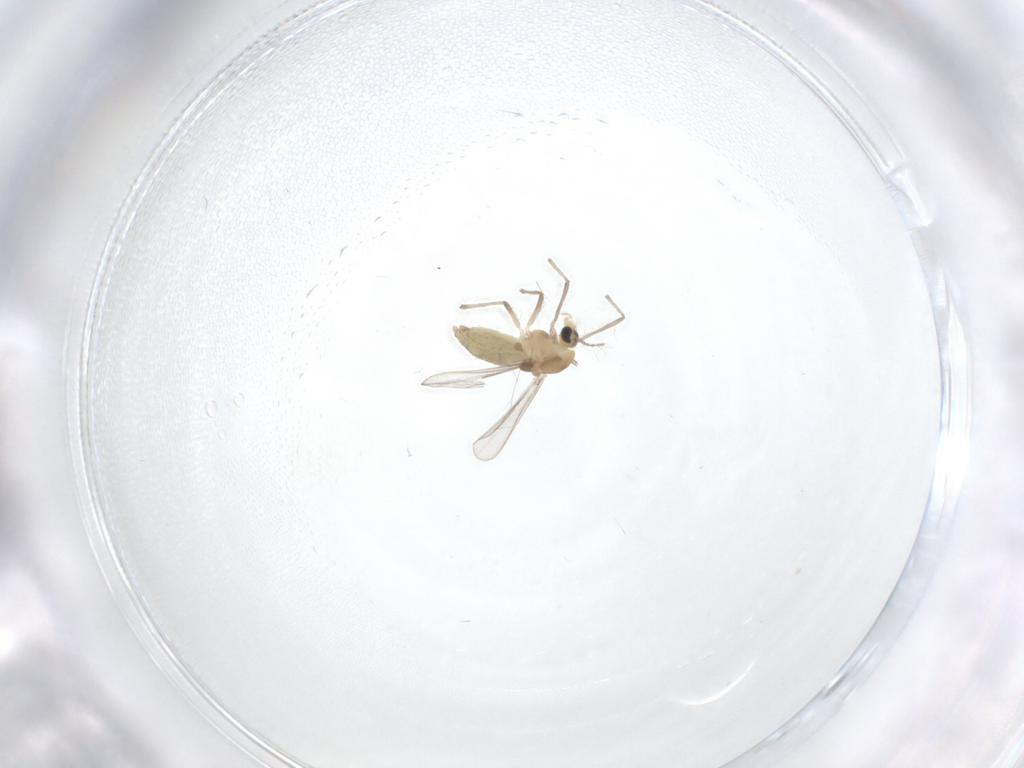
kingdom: Animalia
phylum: Arthropoda
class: Insecta
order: Diptera
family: Chironomidae
